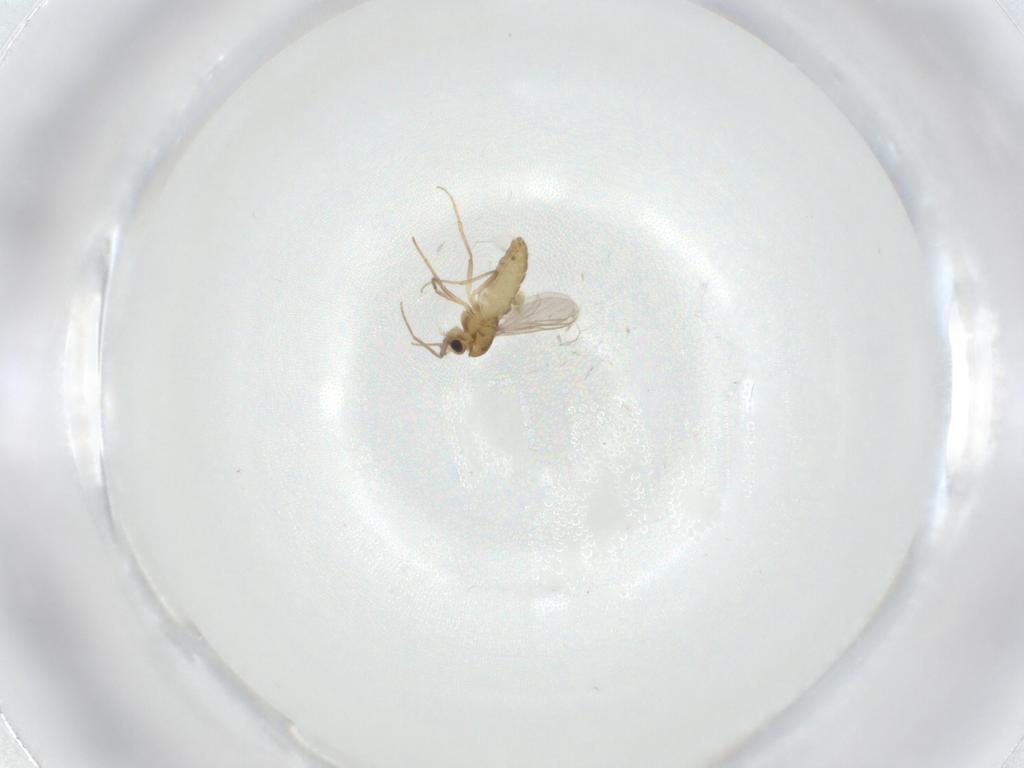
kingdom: Animalia
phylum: Arthropoda
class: Insecta
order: Diptera
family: Chironomidae
